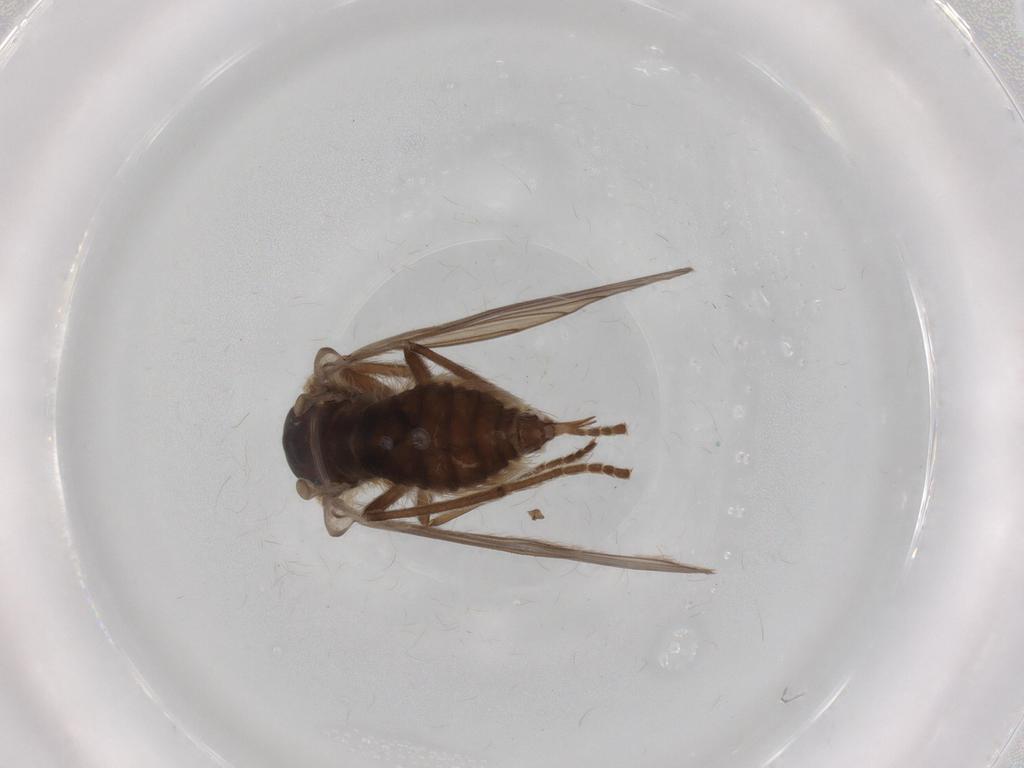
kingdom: Animalia
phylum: Arthropoda
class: Insecta
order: Diptera
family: Psychodidae
